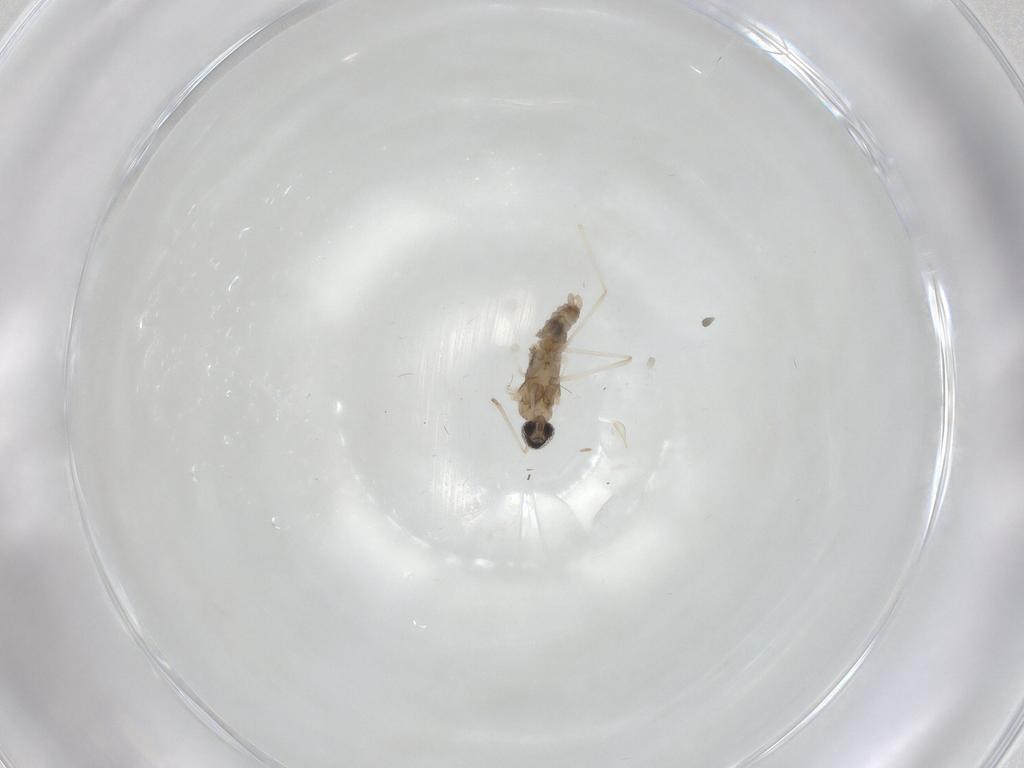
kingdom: Animalia
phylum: Arthropoda
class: Insecta
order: Diptera
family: Cecidomyiidae
